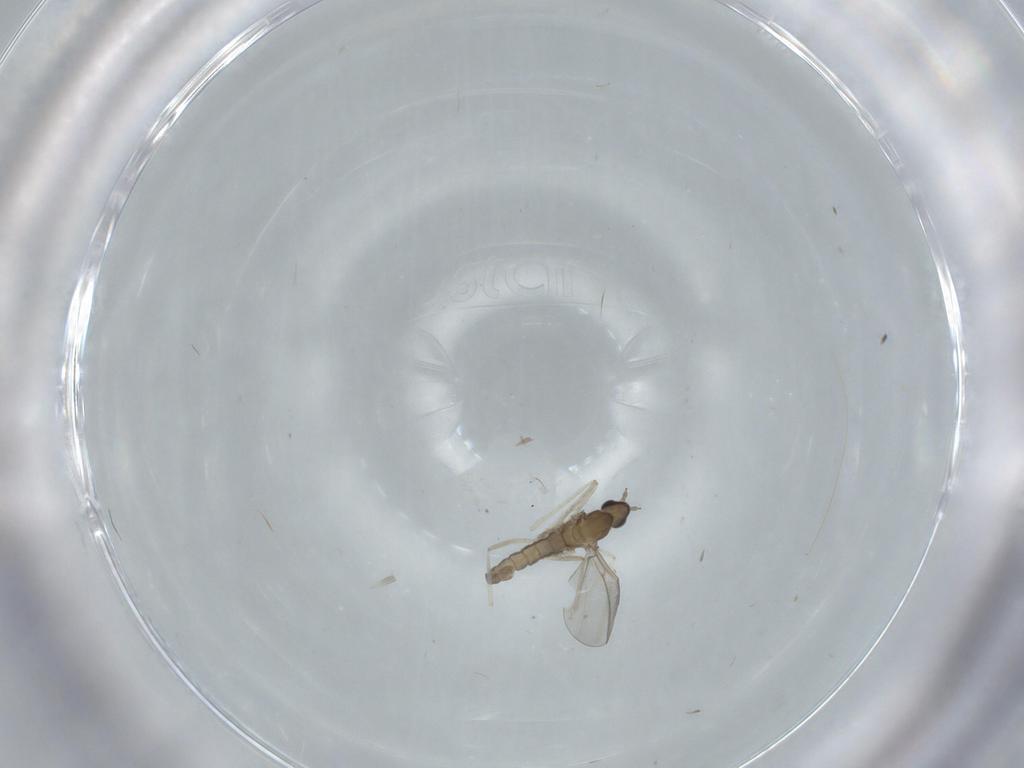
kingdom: Animalia
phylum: Arthropoda
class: Insecta
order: Diptera
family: Cecidomyiidae
